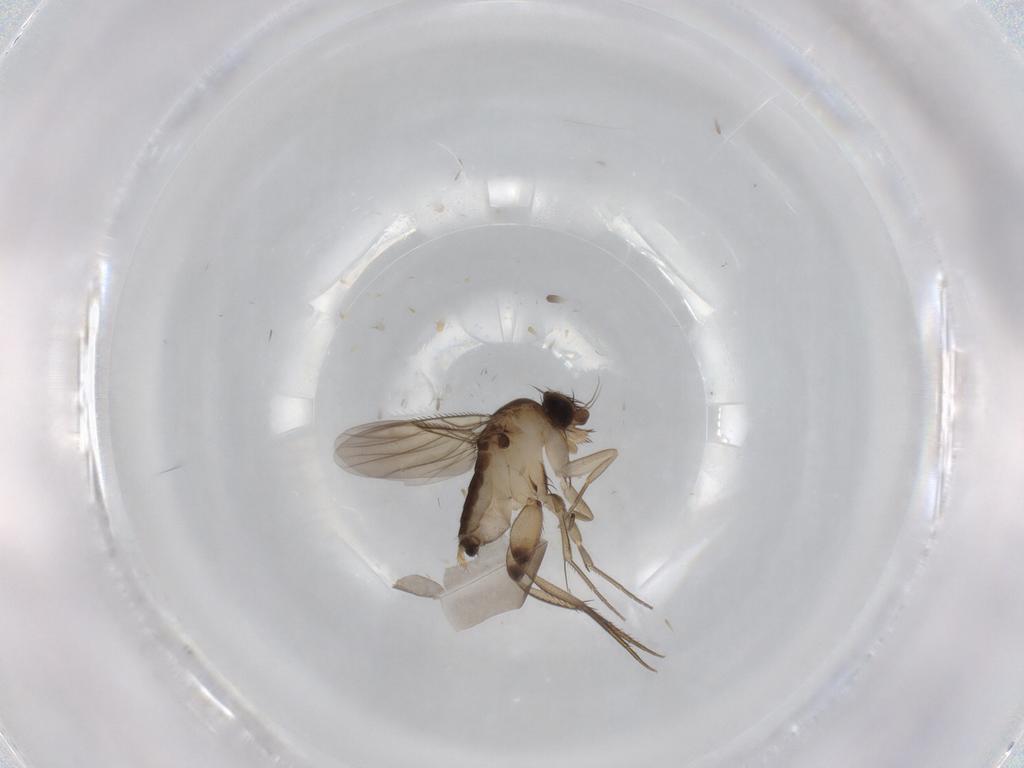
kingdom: Animalia
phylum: Arthropoda
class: Insecta
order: Diptera
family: Phoridae
